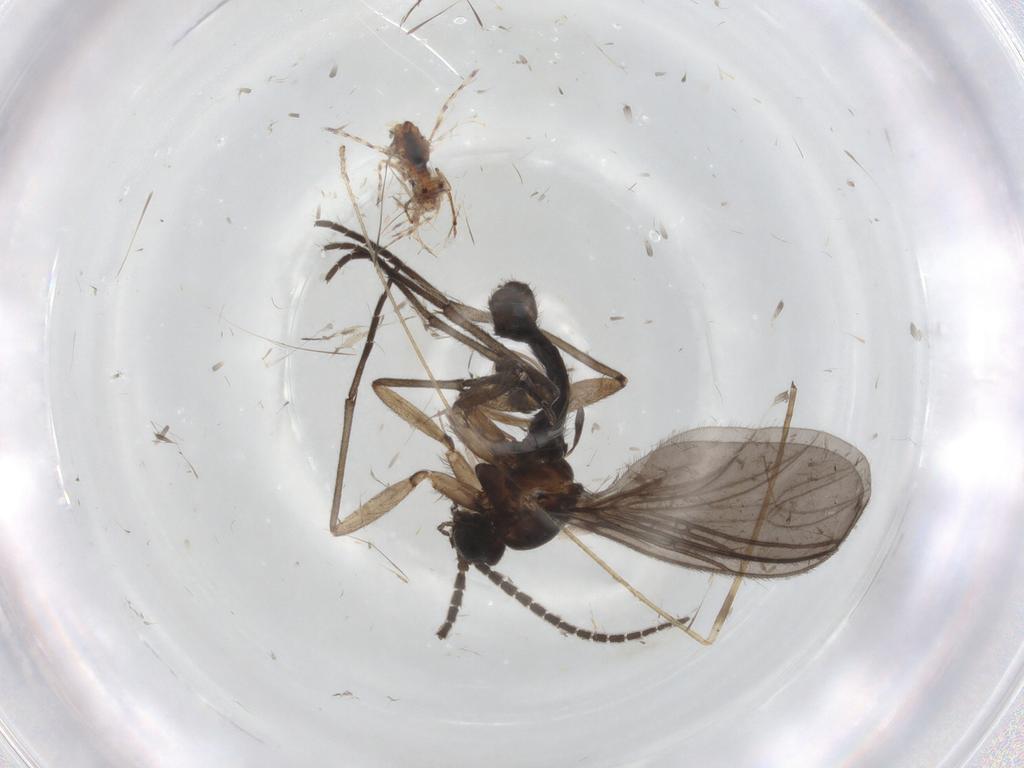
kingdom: Animalia
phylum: Arthropoda
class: Insecta
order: Diptera
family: Sciaridae
